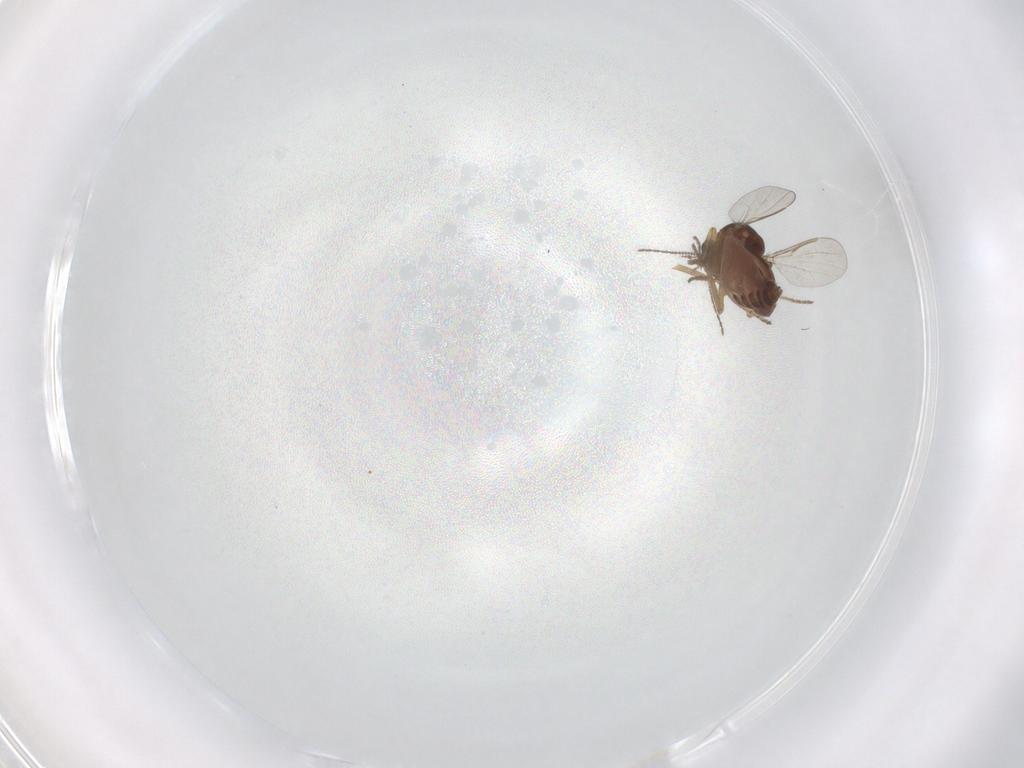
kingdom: Animalia
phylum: Arthropoda
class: Insecta
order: Diptera
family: Ceratopogonidae
